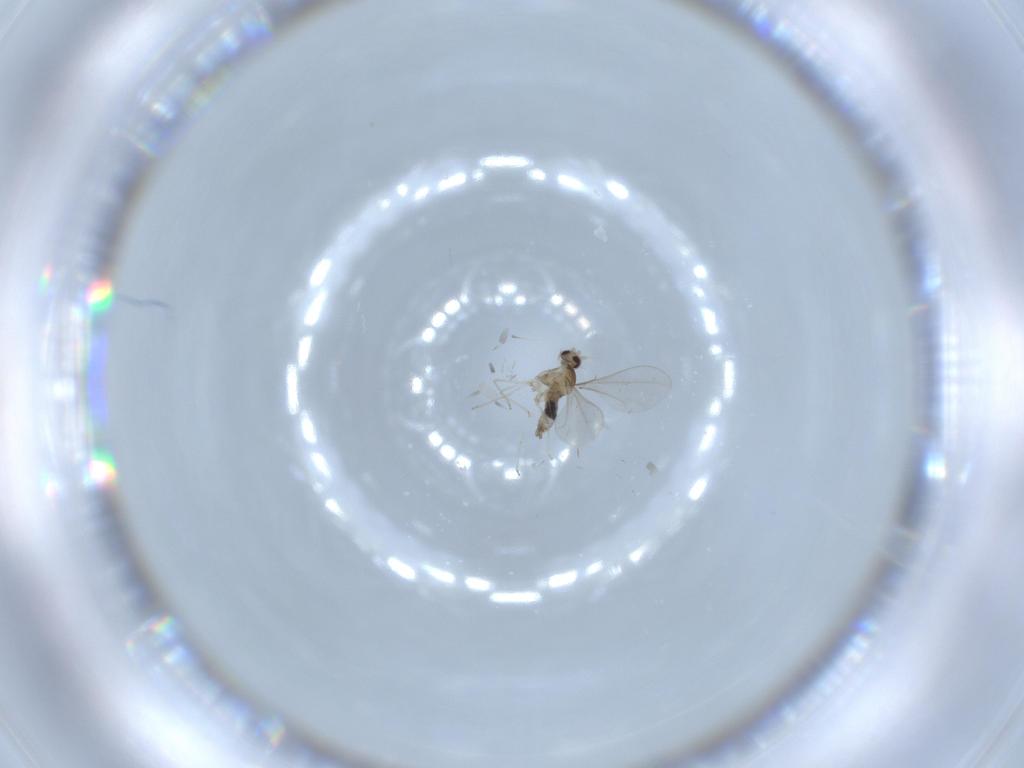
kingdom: Animalia
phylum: Arthropoda
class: Insecta
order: Diptera
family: Cecidomyiidae
